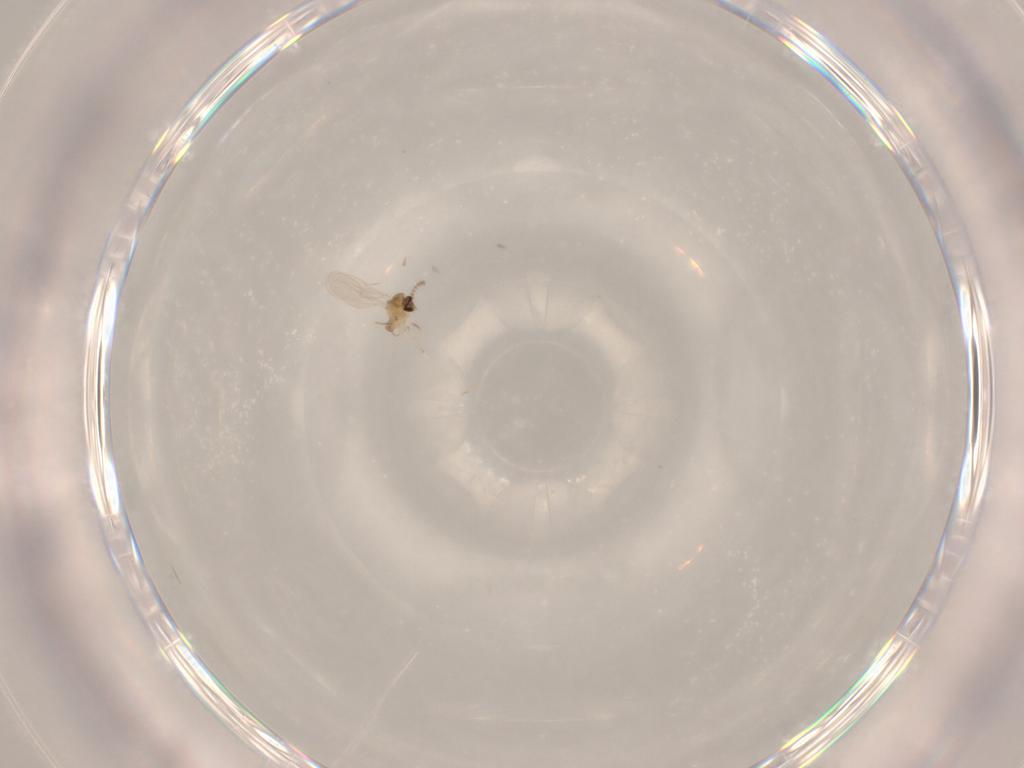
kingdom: Animalia
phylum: Arthropoda
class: Insecta
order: Diptera
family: Cecidomyiidae
